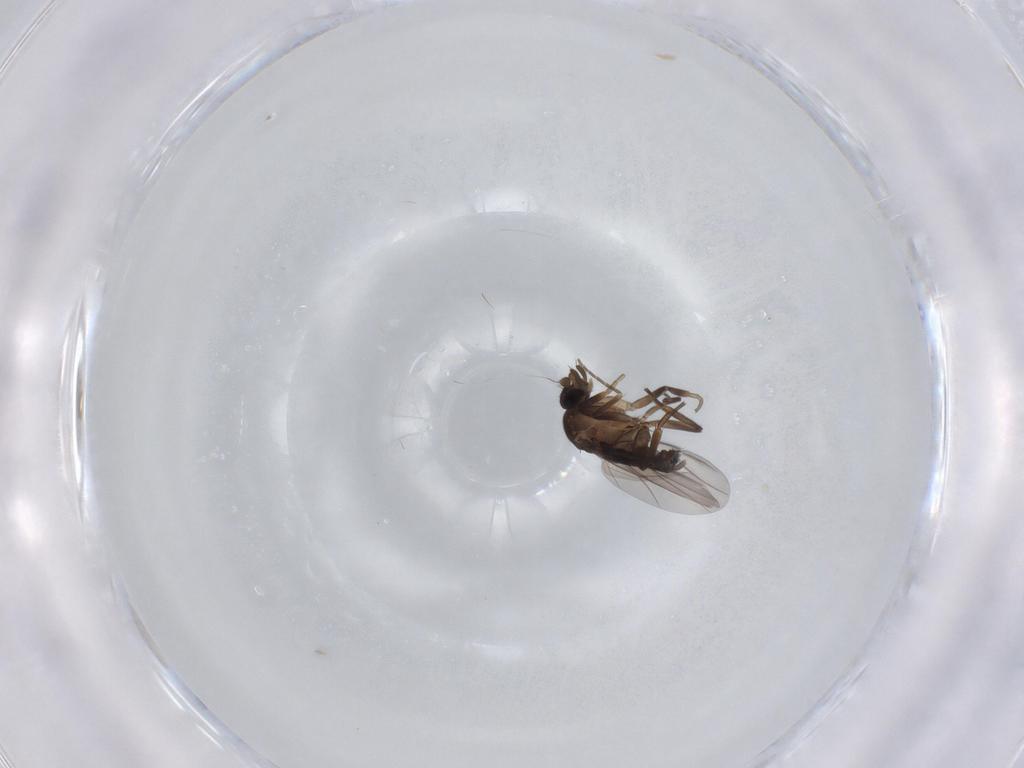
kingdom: Animalia
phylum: Arthropoda
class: Insecta
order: Diptera
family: Phoridae
